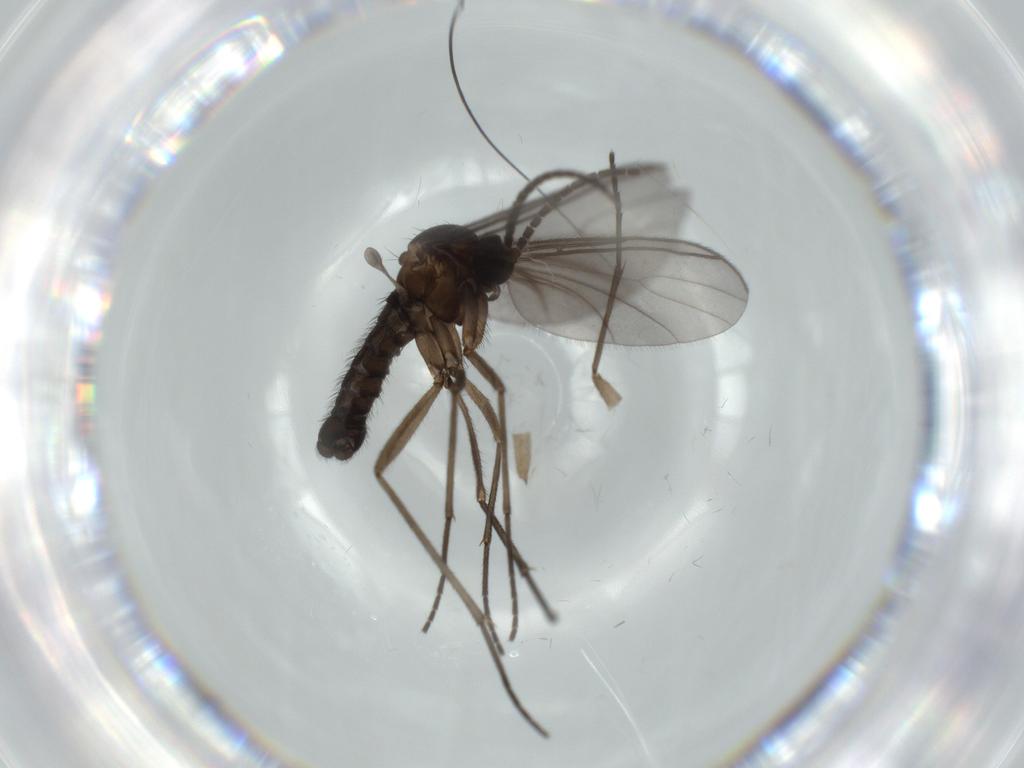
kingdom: Animalia
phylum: Arthropoda
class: Insecta
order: Diptera
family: Sciaridae
